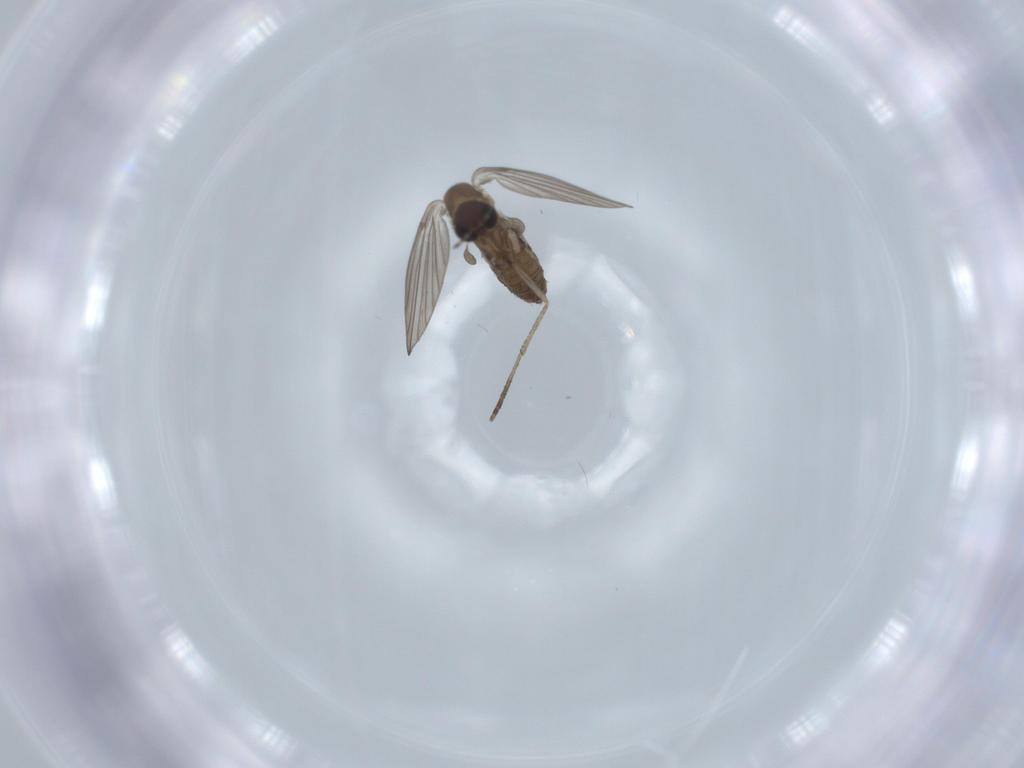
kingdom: Animalia
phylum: Arthropoda
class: Insecta
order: Diptera
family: Psychodidae
